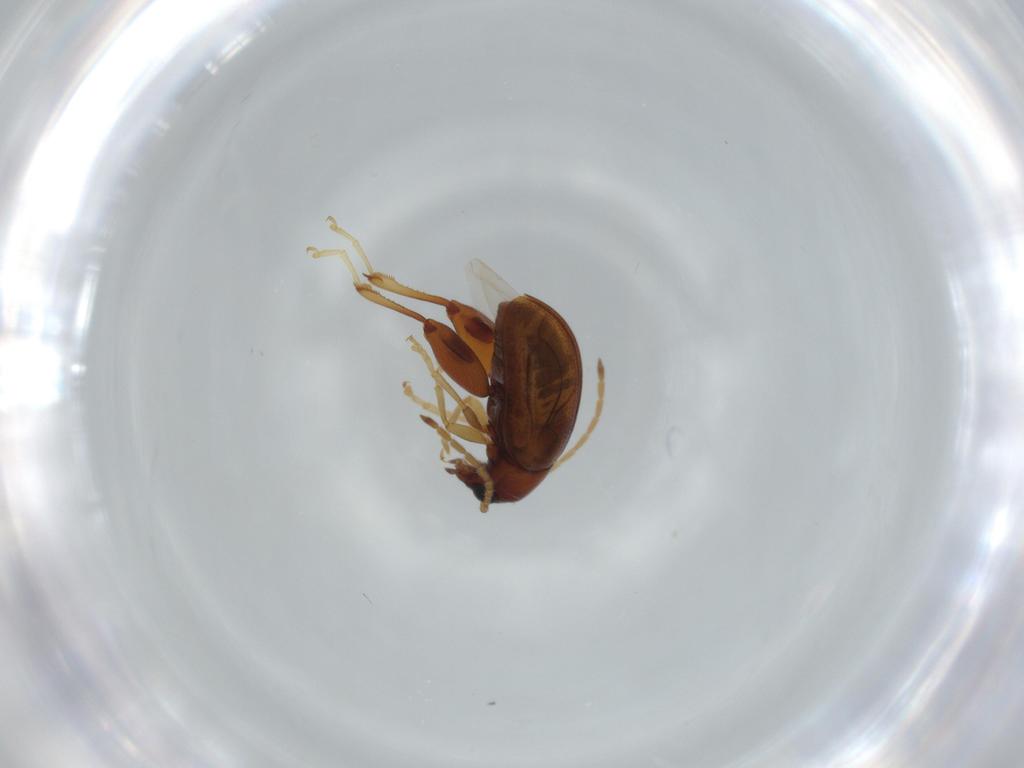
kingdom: Animalia
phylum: Arthropoda
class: Insecta
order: Coleoptera
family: Chrysomelidae
